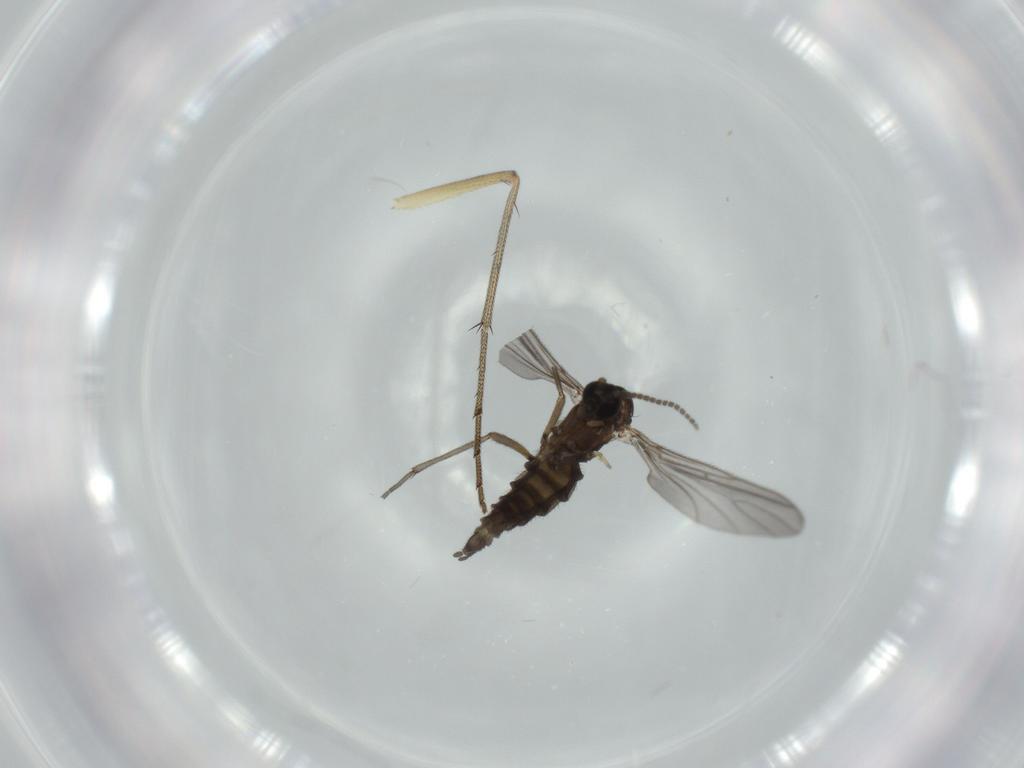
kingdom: Animalia
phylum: Arthropoda
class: Insecta
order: Diptera
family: Sciaridae
